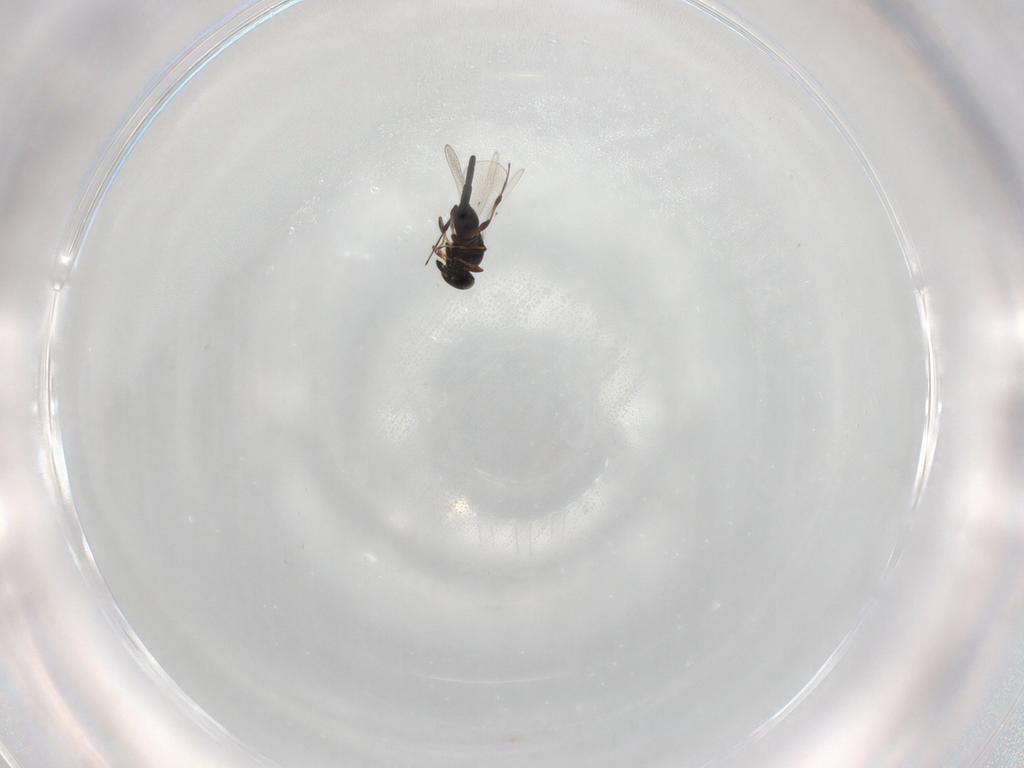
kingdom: Animalia
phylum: Arthropoda
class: Insecta
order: Hymenoptera
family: Platygastridae
